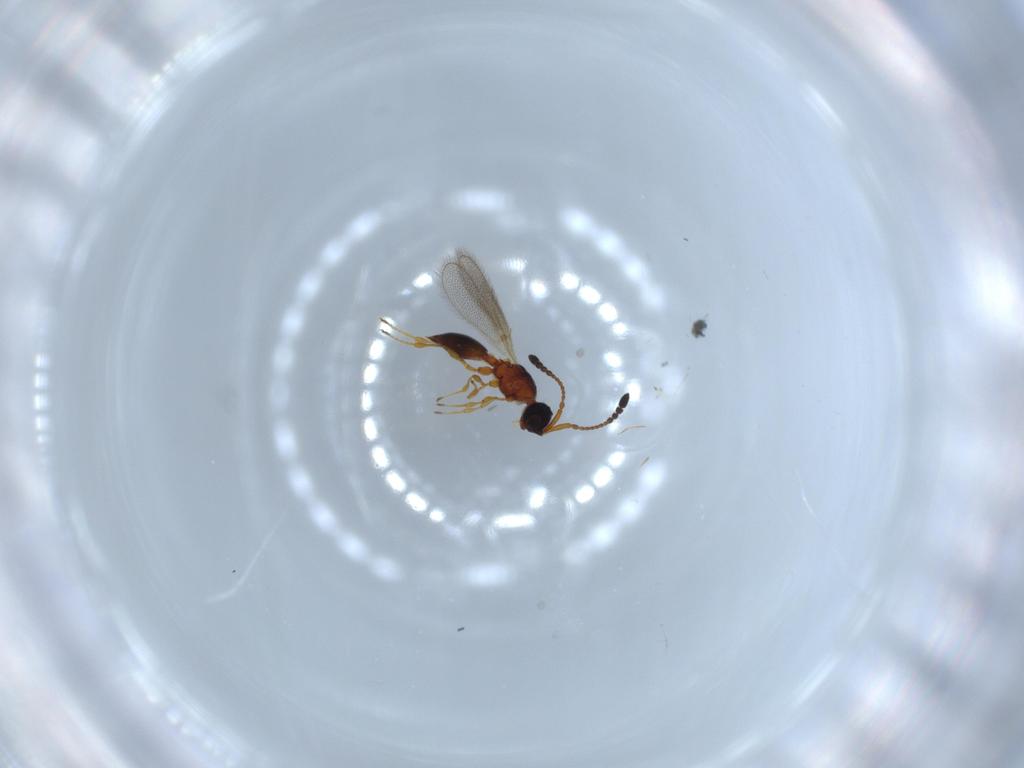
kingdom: Animalia
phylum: Arthropoda
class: Insecta
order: Hymenoptera
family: Diapriidae
